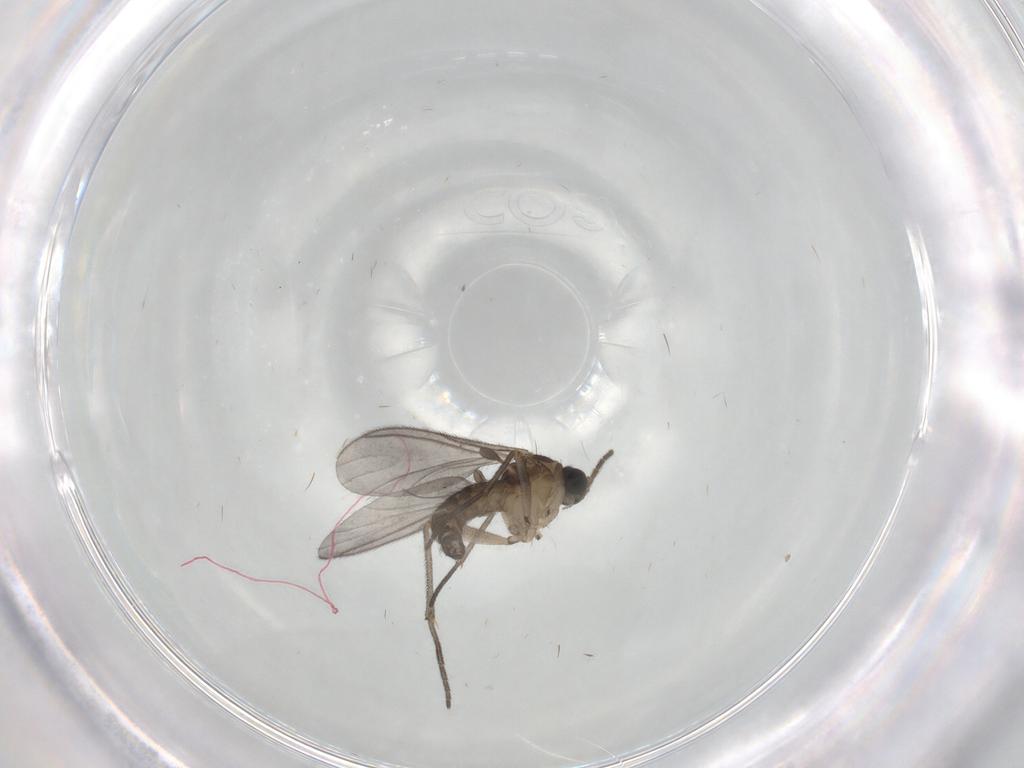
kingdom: Animalia
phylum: Arthropoda
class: Insecta
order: Diptera
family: Sciaridae
